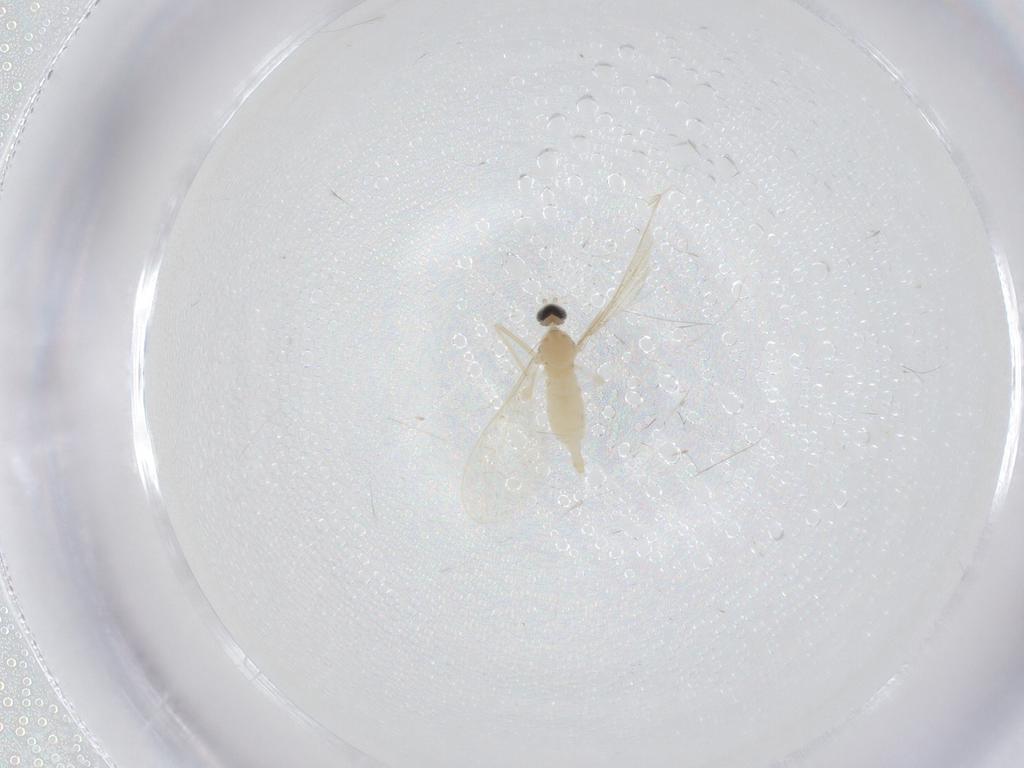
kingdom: Animalia
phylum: Arthropoda
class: Insecta
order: Diptera
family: Cecidomyiidae
